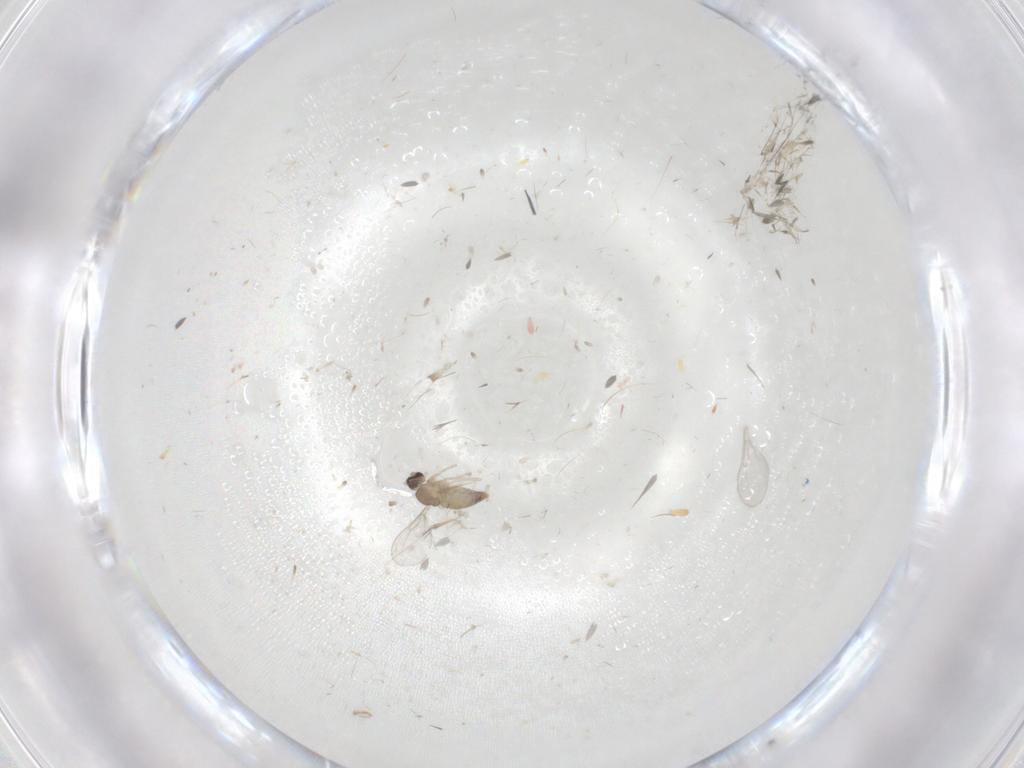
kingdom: Animalia
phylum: Arthropoda
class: Insecta
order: Diptera
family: Cecidomyiidae
